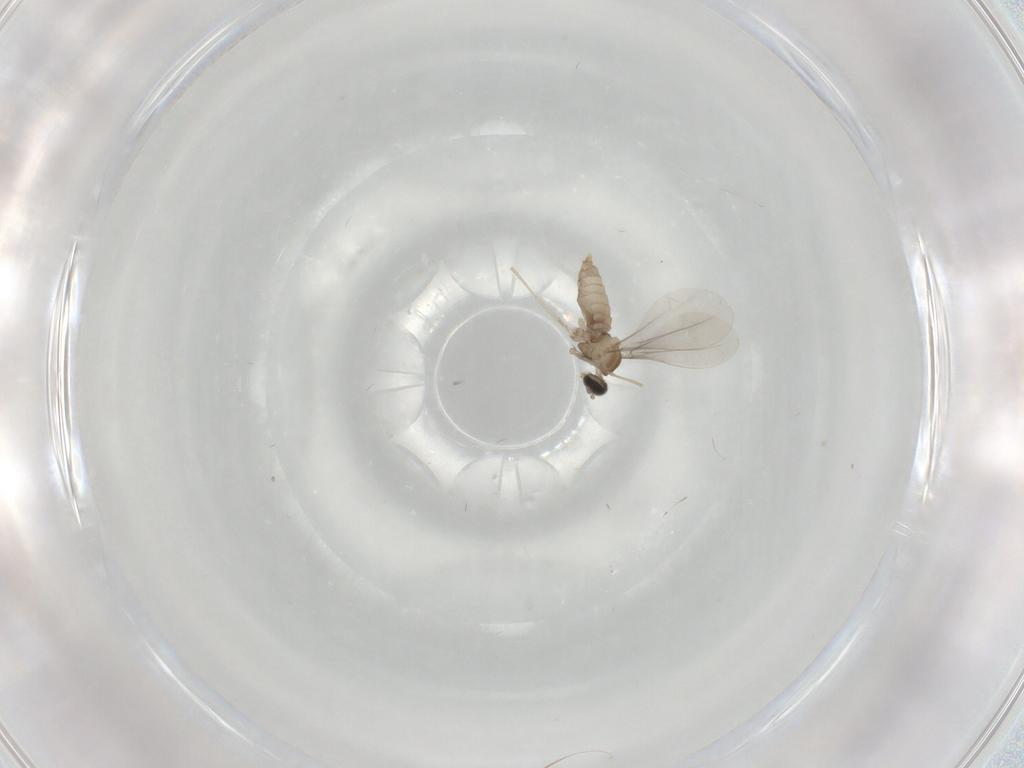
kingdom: Animalia
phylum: Arthropoda
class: Insecta
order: Diptera
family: Cecidomyiidae
